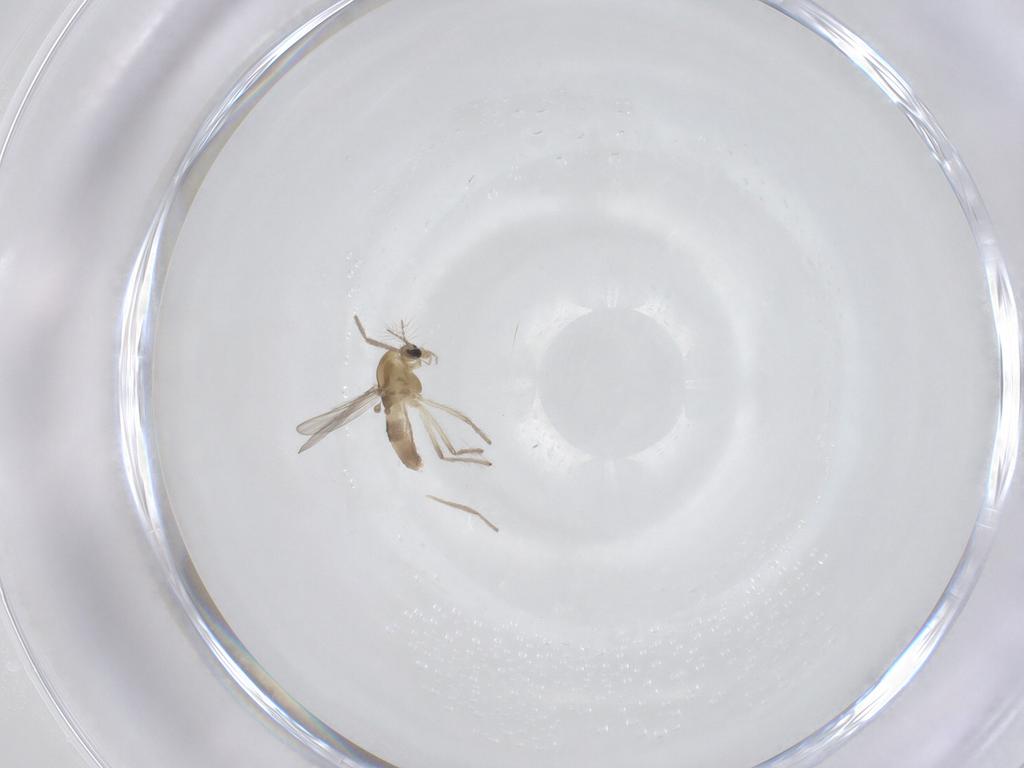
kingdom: Animalia
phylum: Arthropoda
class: Insecta
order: Diptera
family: Chironomidae
